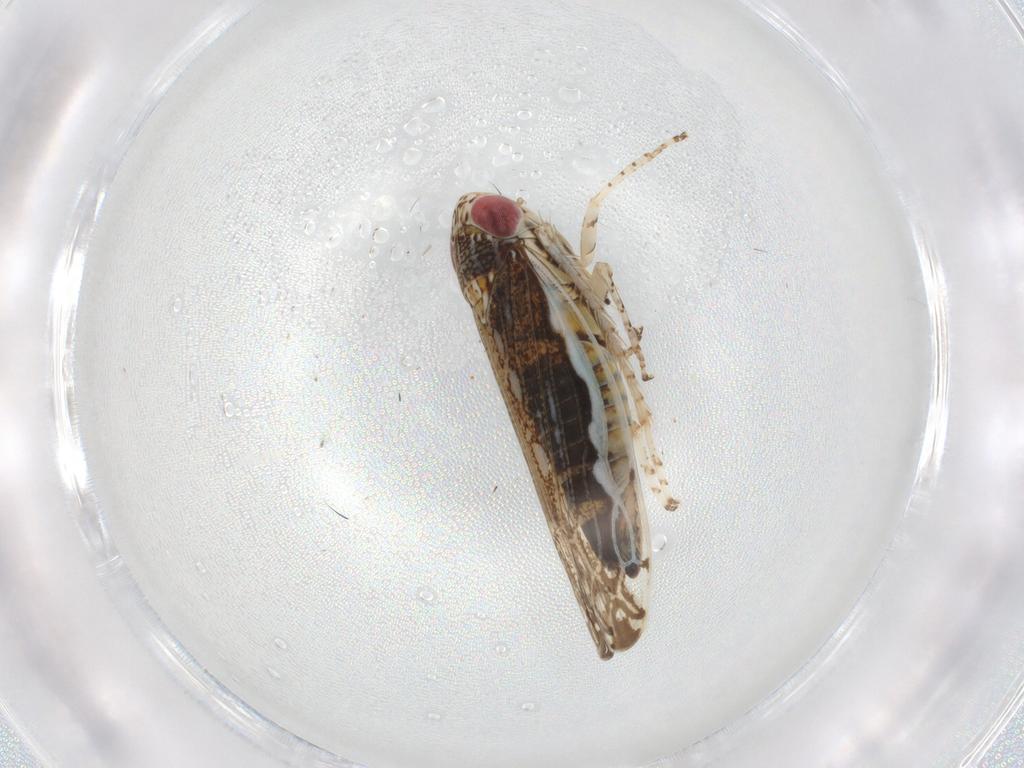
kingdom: Animalia
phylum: Arthropoda
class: Insecta
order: Hemiptera
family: Cicadellidae
